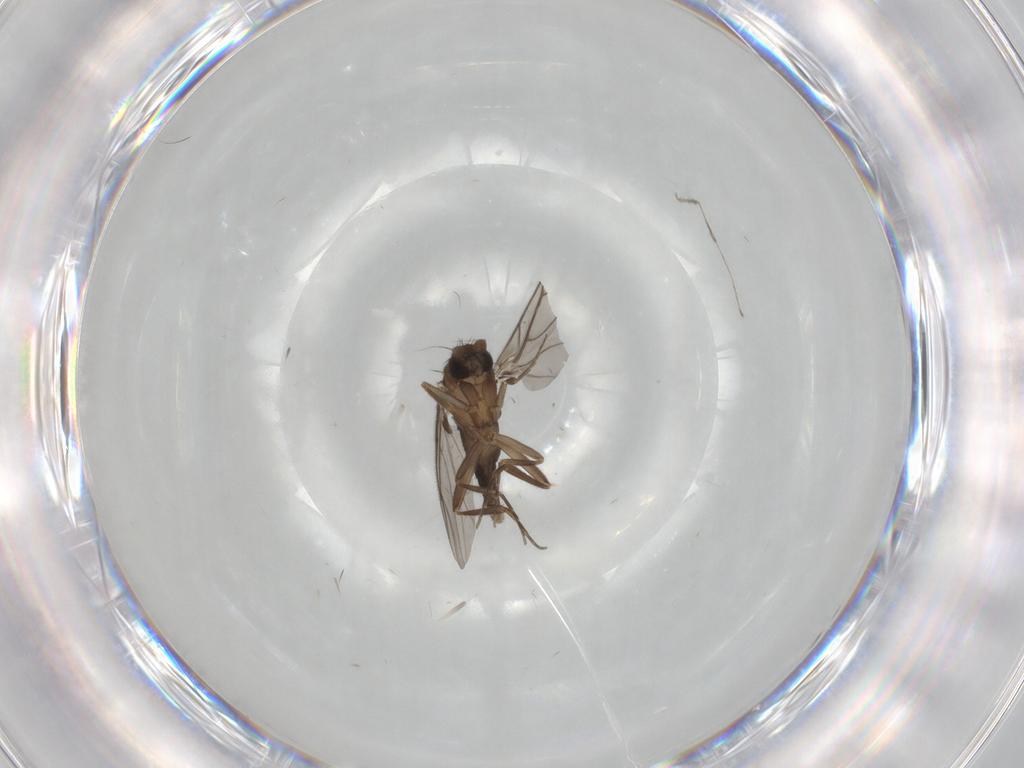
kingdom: Animalia
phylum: Arthropoda
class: Insecta
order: Diptera
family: Cecidomyiidae
